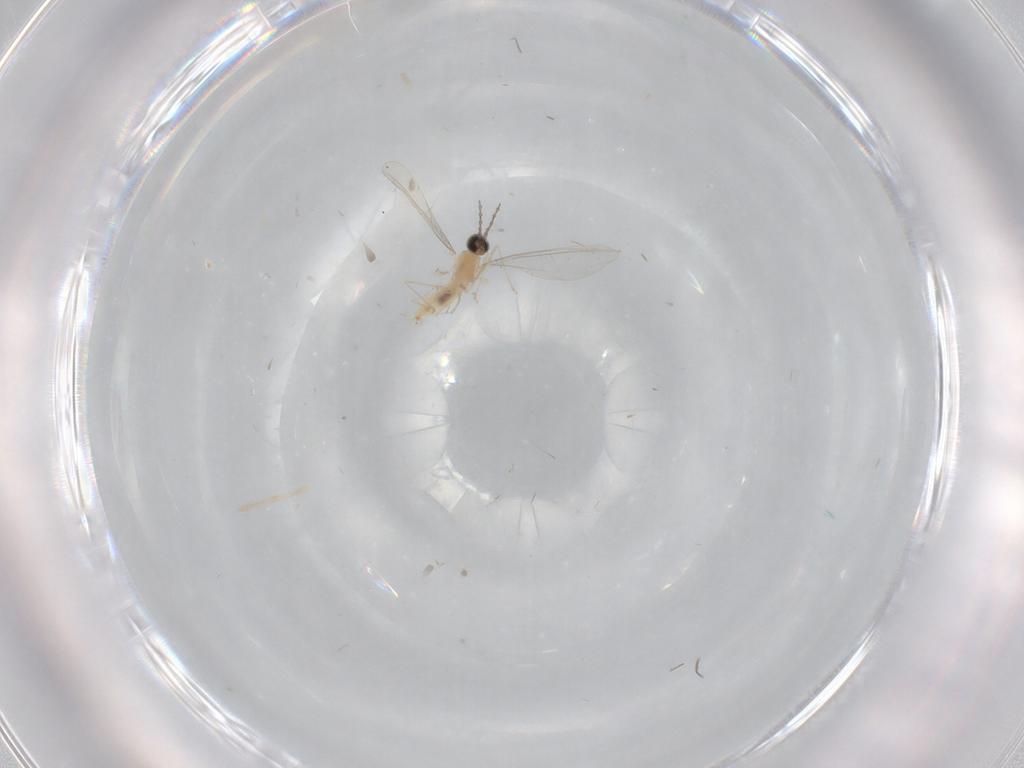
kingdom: Animalia
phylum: Arthropoda
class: Insecta
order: Diptera
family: Cecidomyiidae
